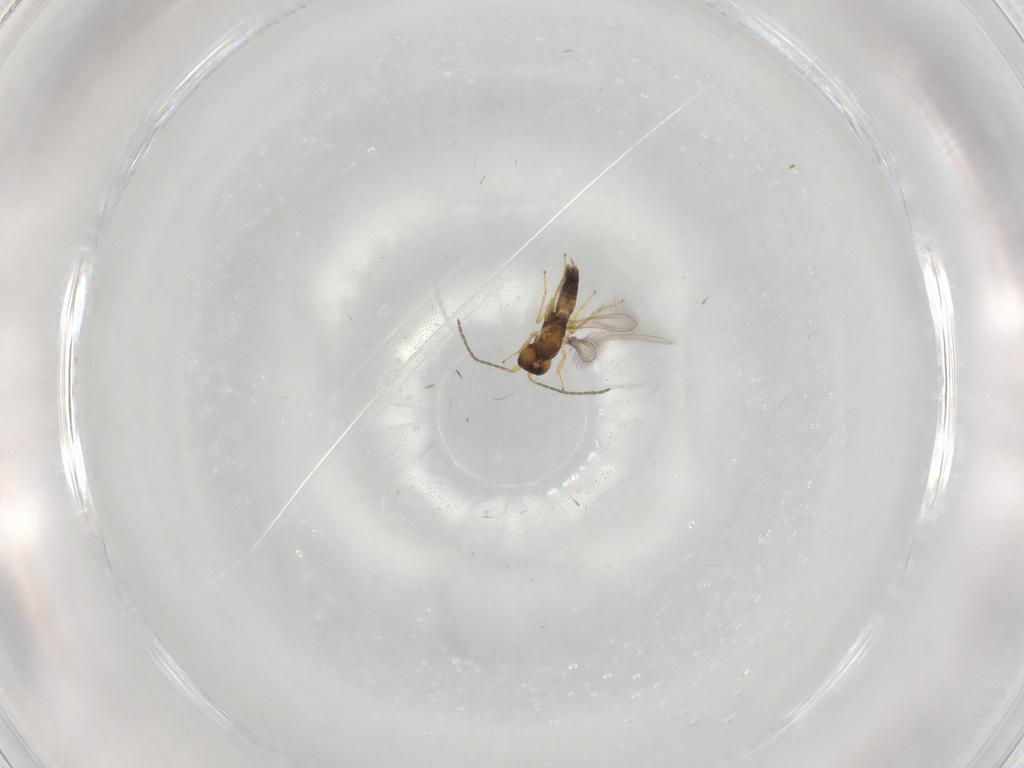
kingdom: Animalia
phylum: Arthropoda
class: Insecta
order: Hymenoptera
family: Mymaridae
